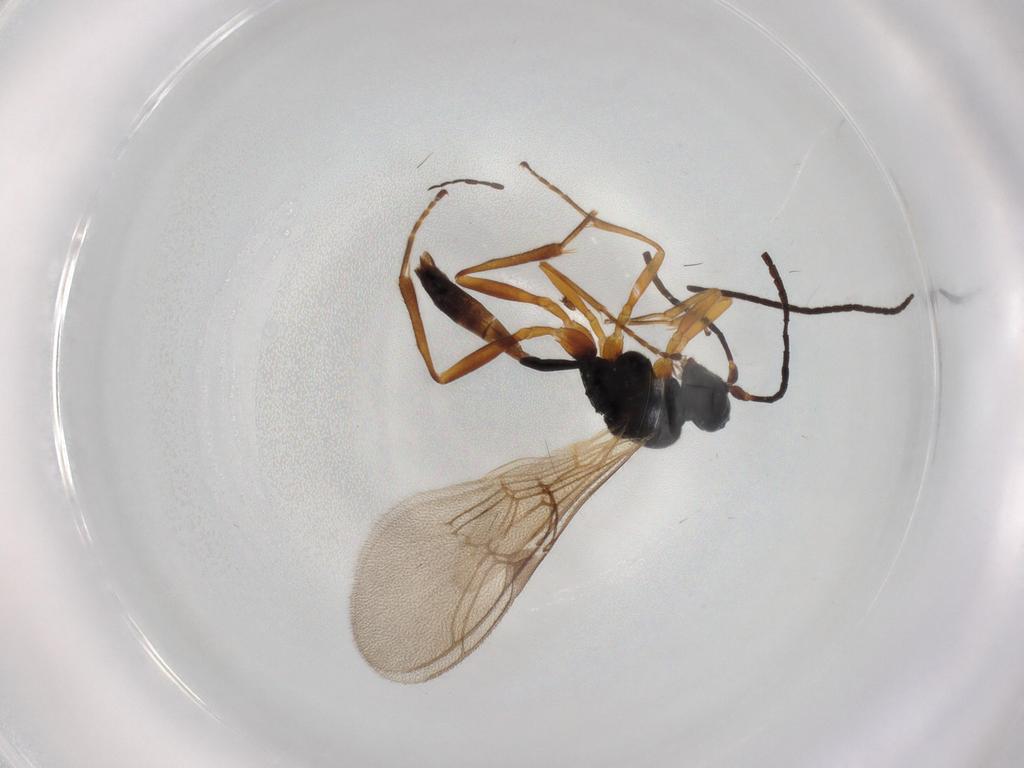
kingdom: Animalia
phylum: Arthropoda
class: Insecta
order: Hymenoptera
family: Ichneumonidae
